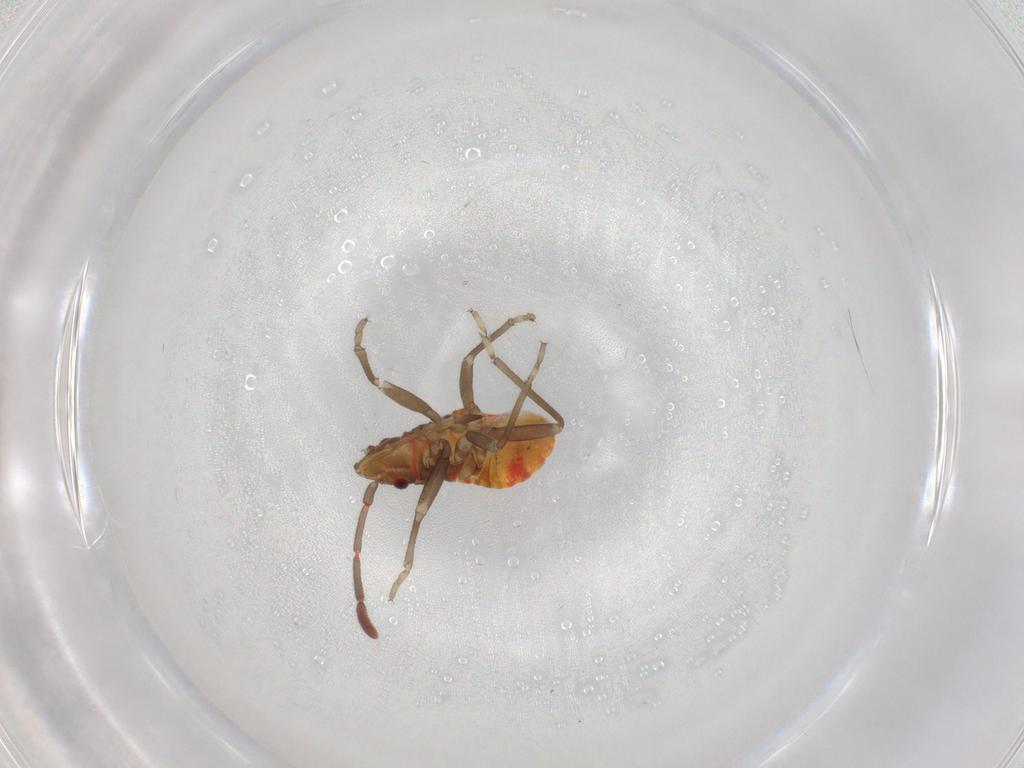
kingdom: Animalia
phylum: Arthropoda
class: Insecta
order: Hemiptera
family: Rhyparochromidae
